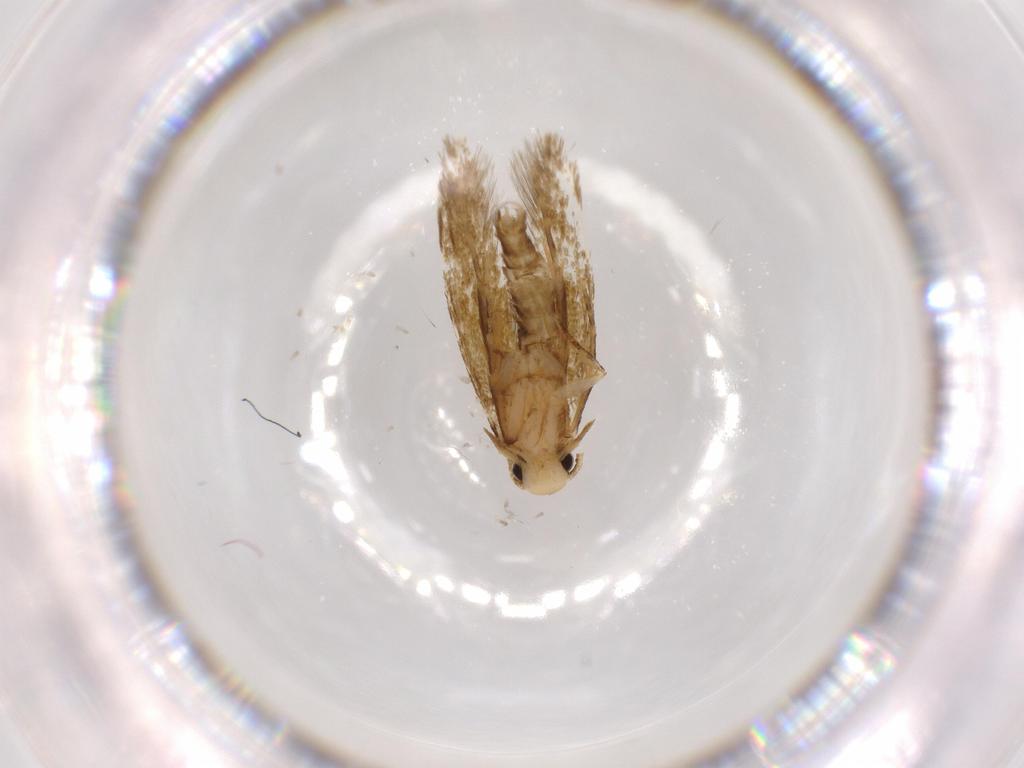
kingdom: Animalia
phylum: Arthropoda
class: Insecta
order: Lepidoptera
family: Tineidae
